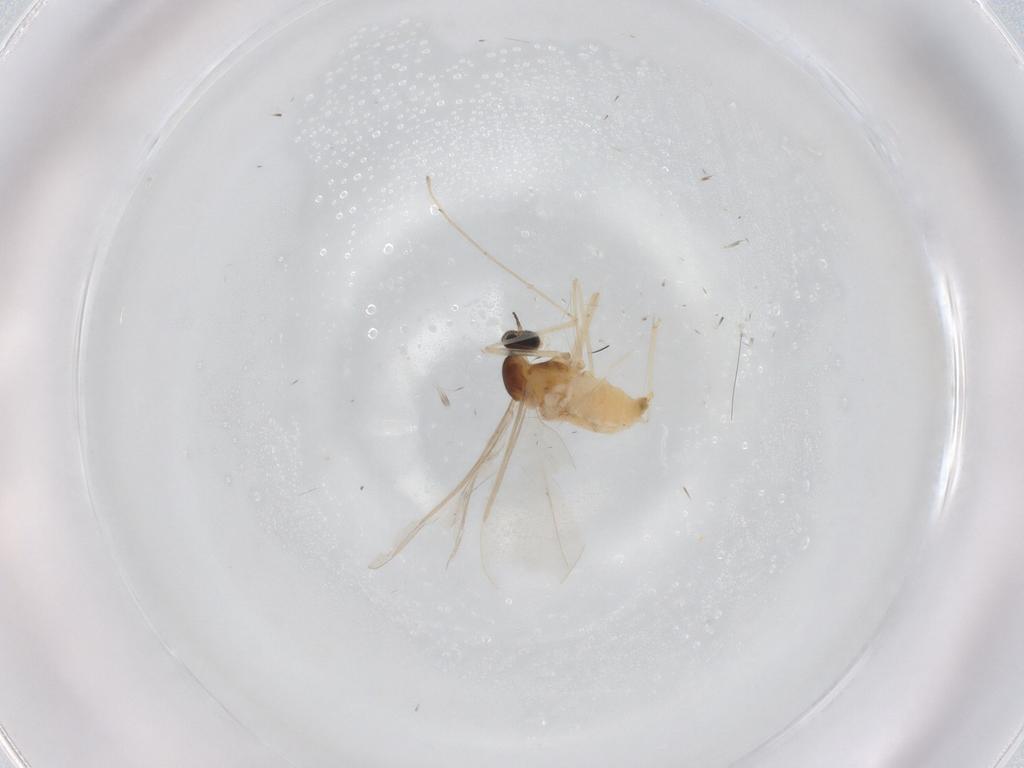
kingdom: Animalia
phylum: Arthropoda
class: Insecta
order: Diptera
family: Cecidomyiidae
